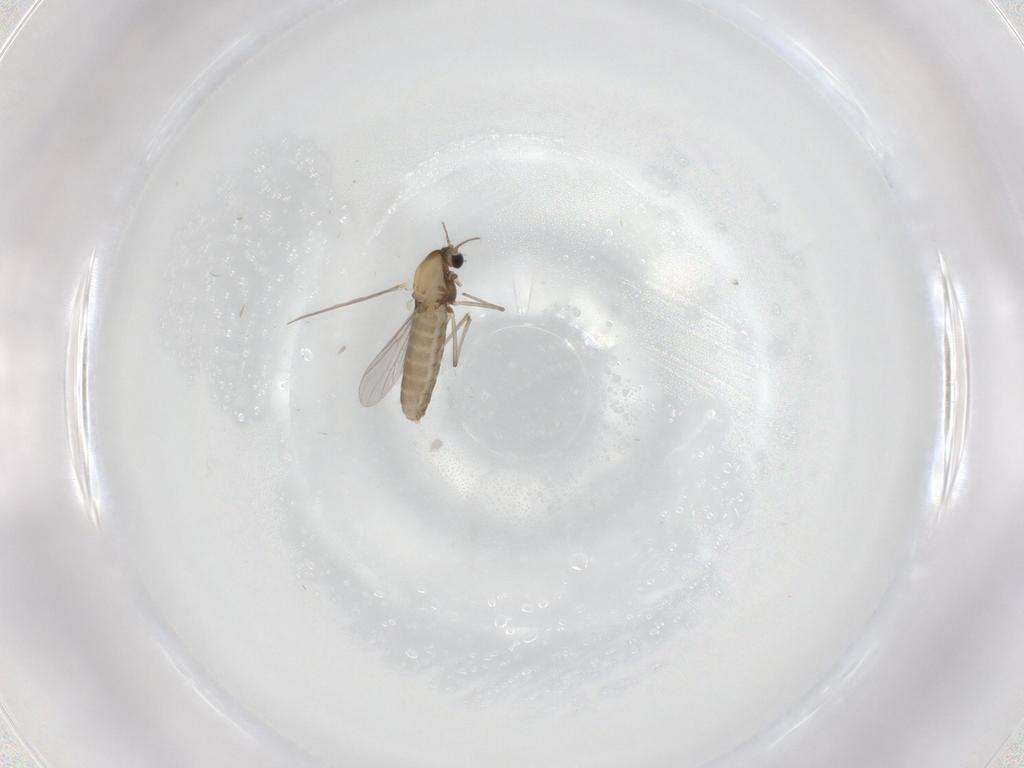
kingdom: Animalia
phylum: Arthropoda
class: Insecta
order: Diptera
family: Chironomidae
